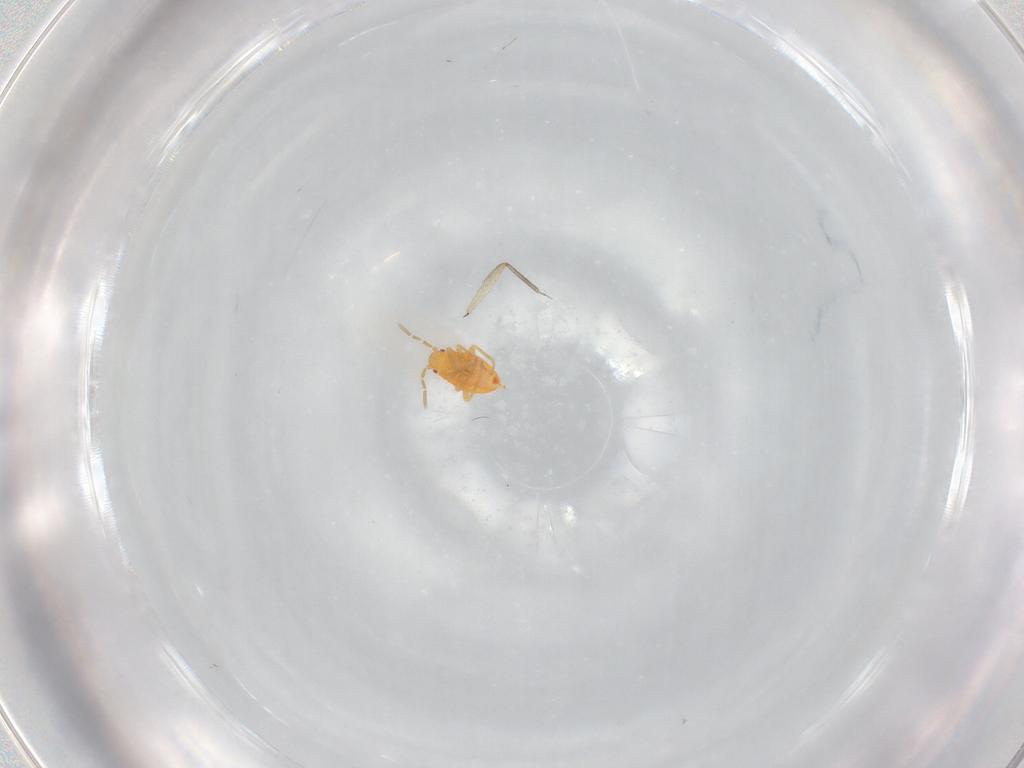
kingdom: Animalia
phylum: Arthropoda
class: Insecta
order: Hemiptera
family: Miridae
